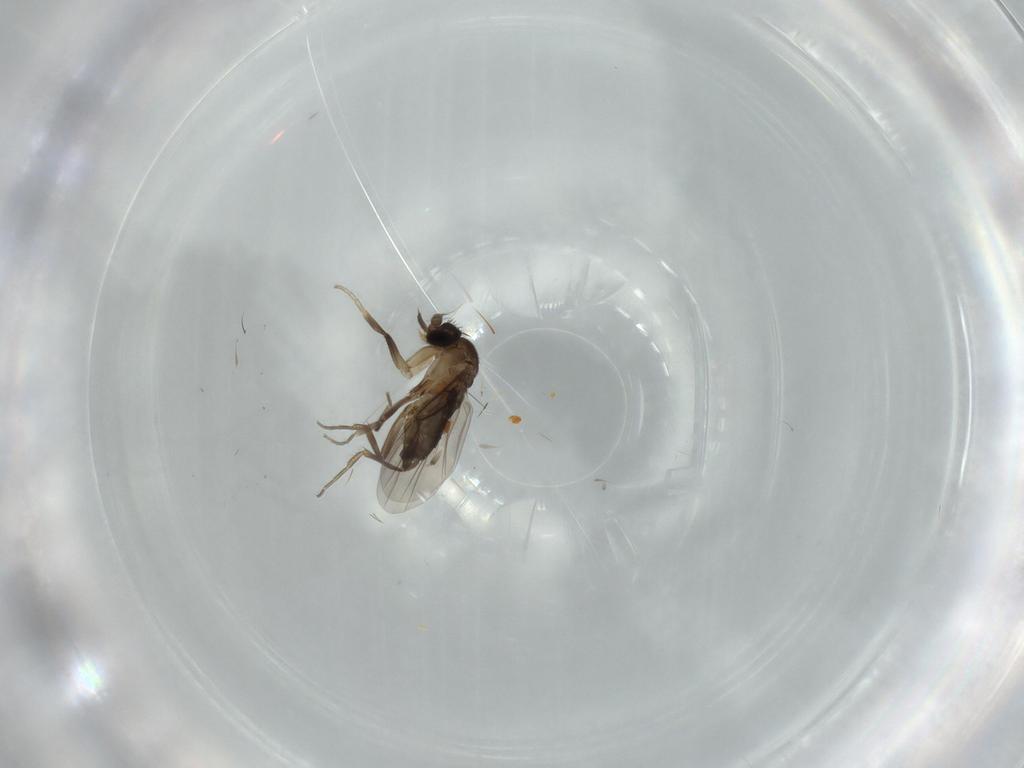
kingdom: Animalia
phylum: Arthropoda
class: Insecta
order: Diptera
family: Phoridae
